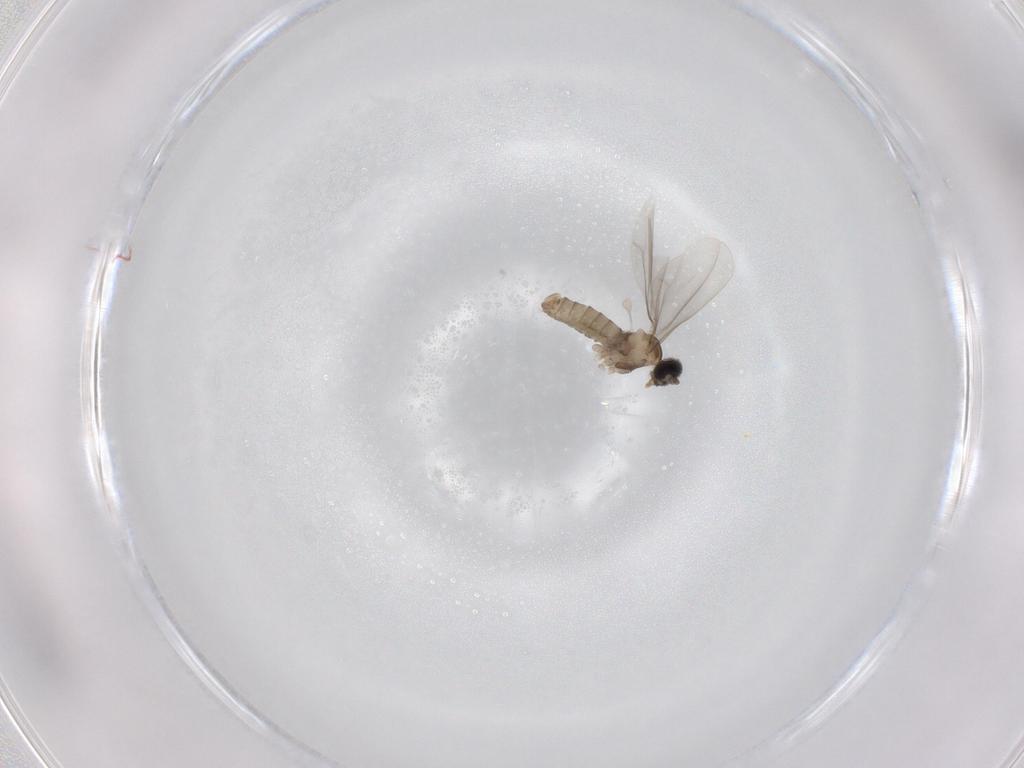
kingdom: Animalia
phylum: Arthropoda
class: Insecta
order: Diptera
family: Cecidomyiidae
